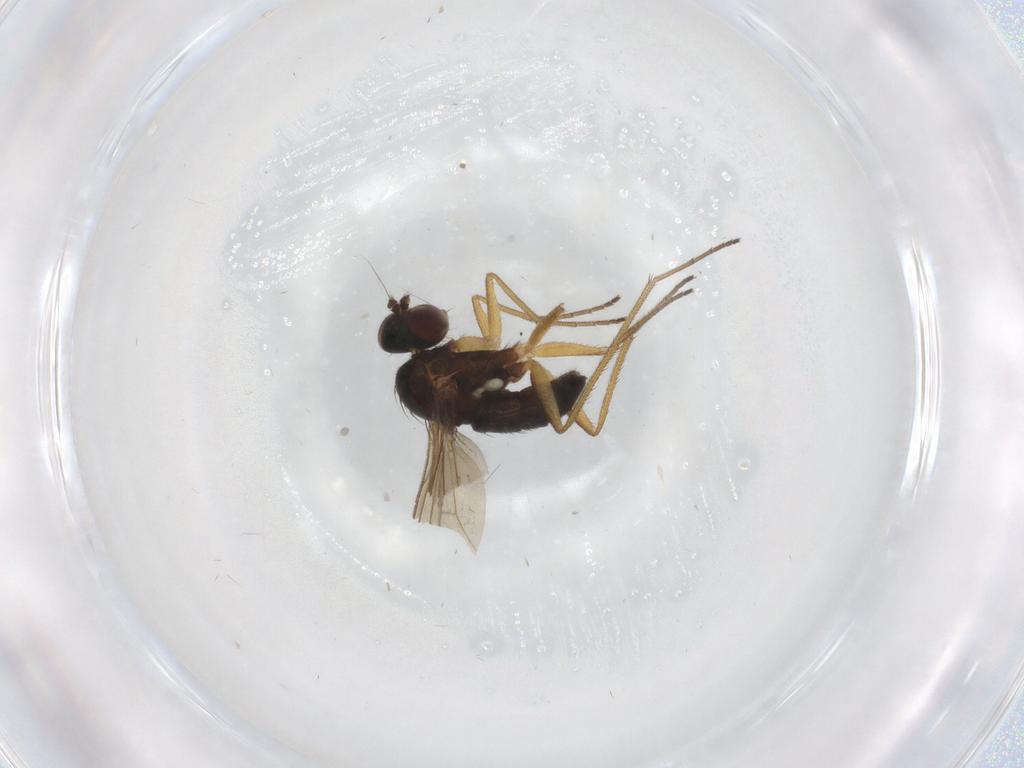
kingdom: Animalia
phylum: Arthropoda
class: Insecta
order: Diptera
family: Dolichopodidae
